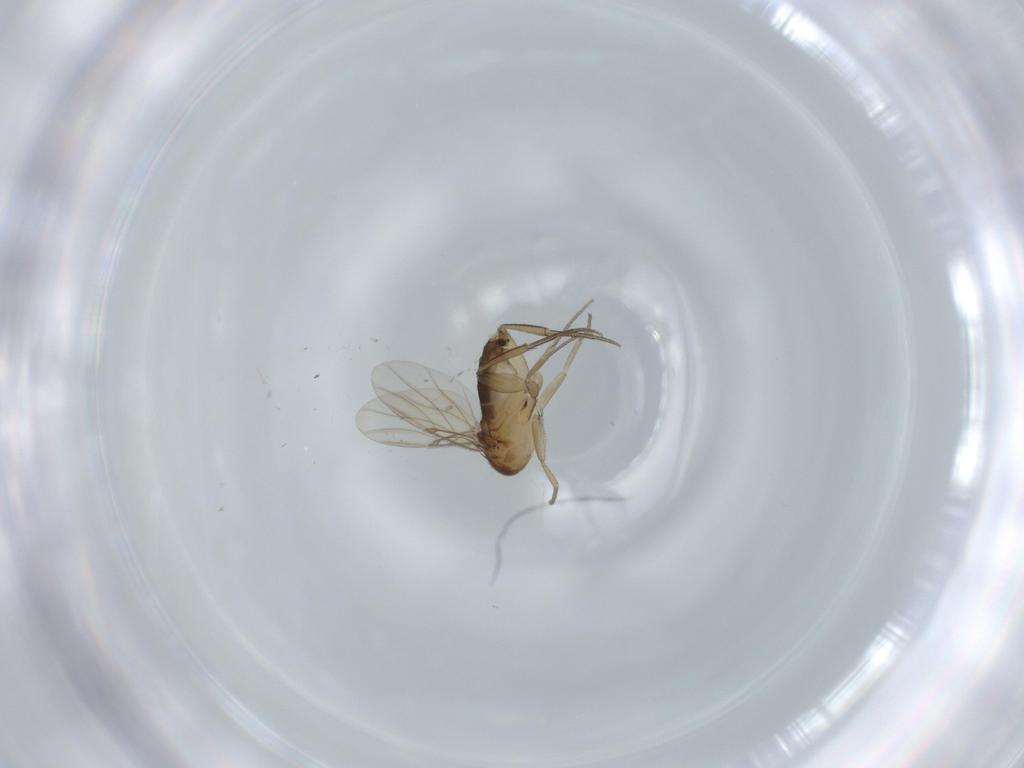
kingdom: Animalia
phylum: Arthropoda
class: Insecta
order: Diptera
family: Phoridae
